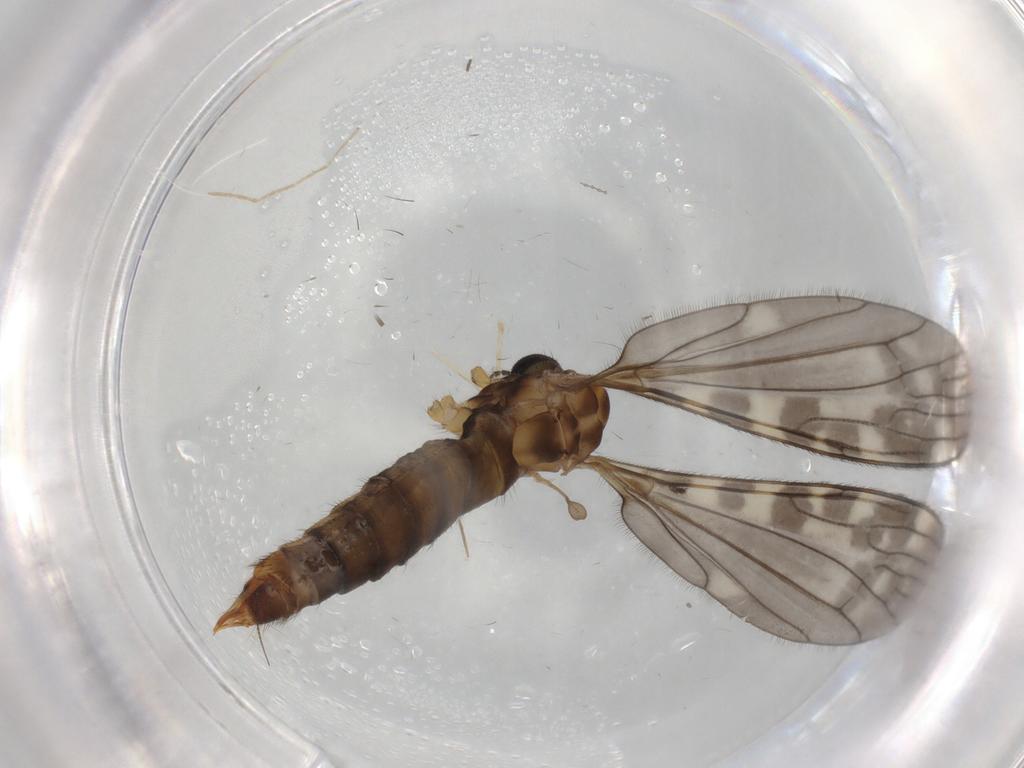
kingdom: Animalia
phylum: Arthropoda
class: Insecta
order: Diptera
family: Limoniidae
